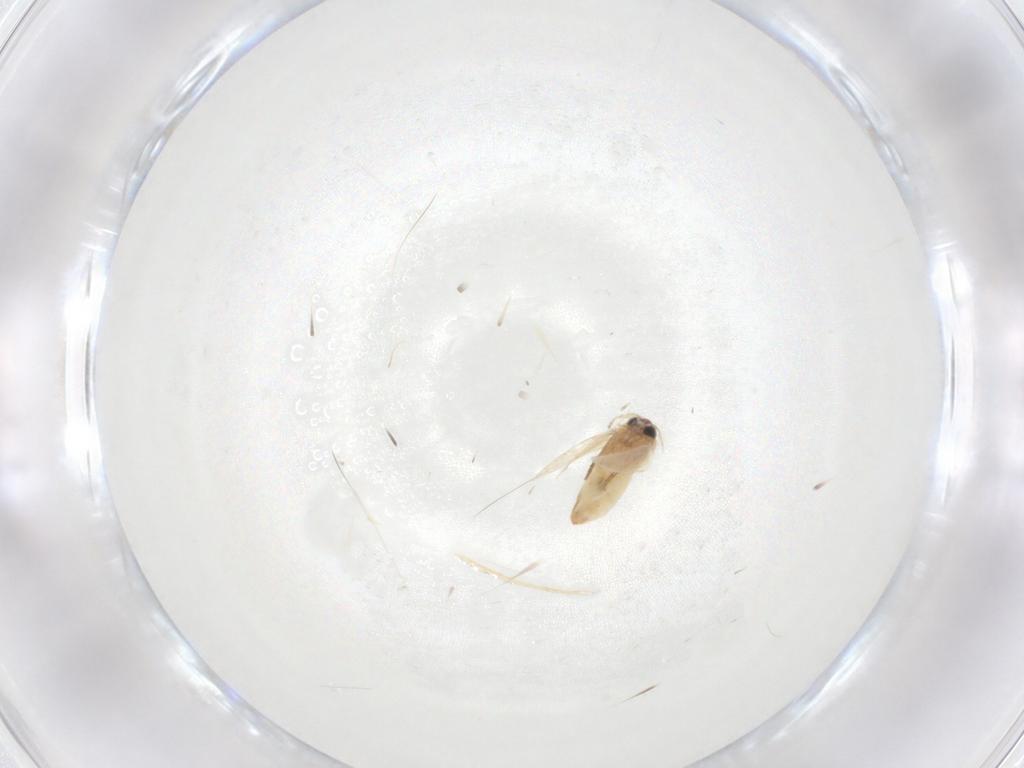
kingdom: Animalia
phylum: Arthropoda
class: Insecta
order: Lepidoptera
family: Crambidae
